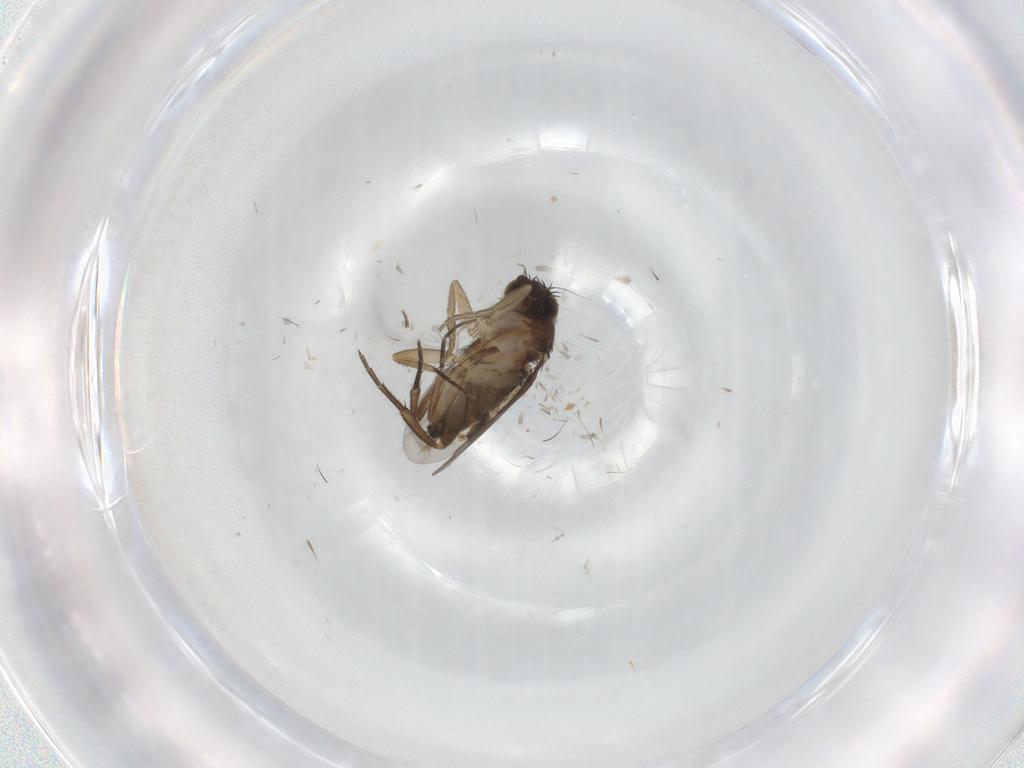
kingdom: Animalia
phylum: Arthropoda
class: Insecta
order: Diptera
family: Phoridae
